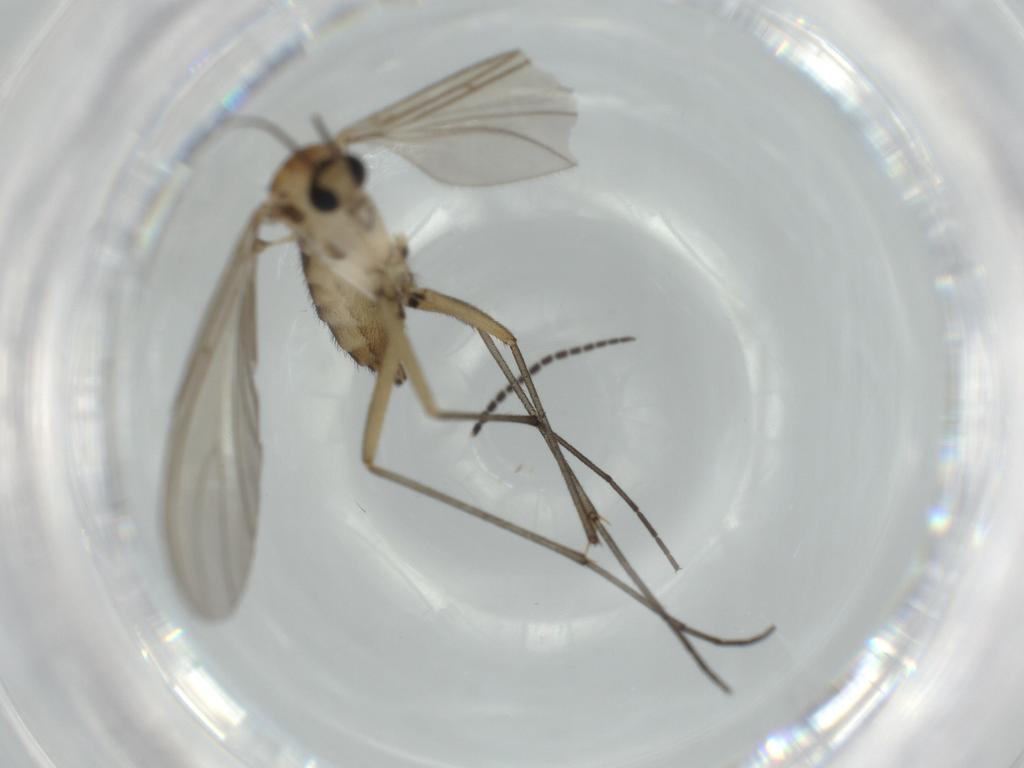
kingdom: Animalia
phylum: Arthropoda
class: Insecta
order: Diptera
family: Sciaridae
